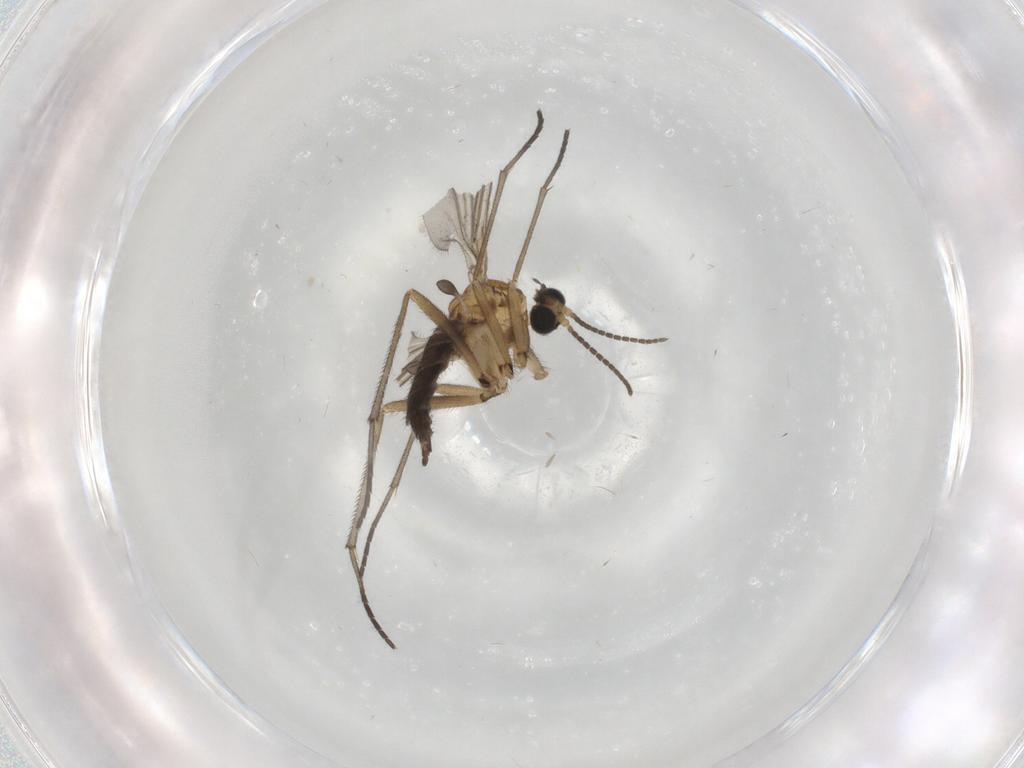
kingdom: Animalia
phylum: Arthropoda
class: Insecta
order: Diptera
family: Sciaridae
